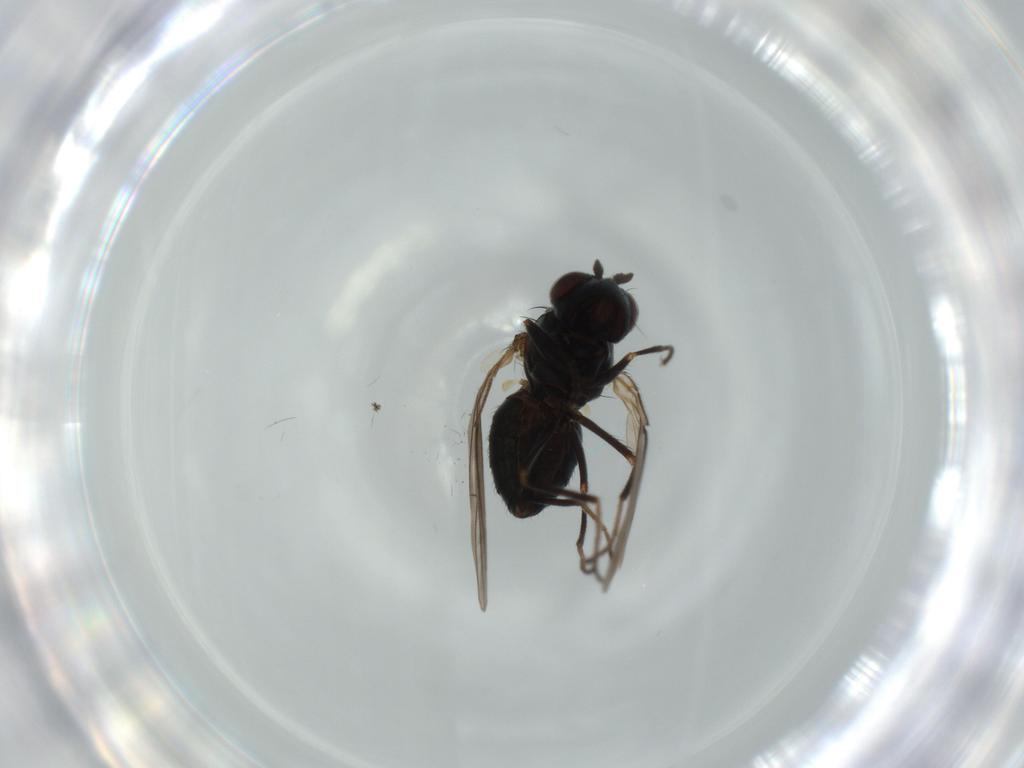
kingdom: Animalia
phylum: Arthropoda
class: Insecta
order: Diptera
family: Ephydridae
